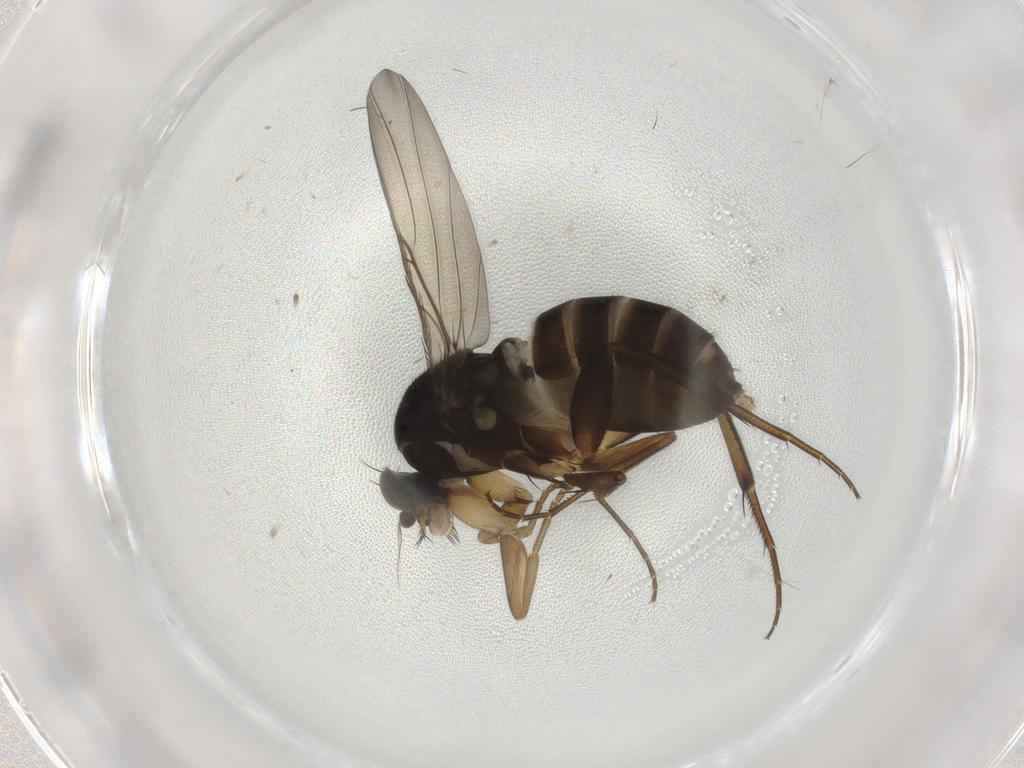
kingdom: Animalia
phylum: Arthropoda
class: Insecta
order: Diptera
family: Phoridae
